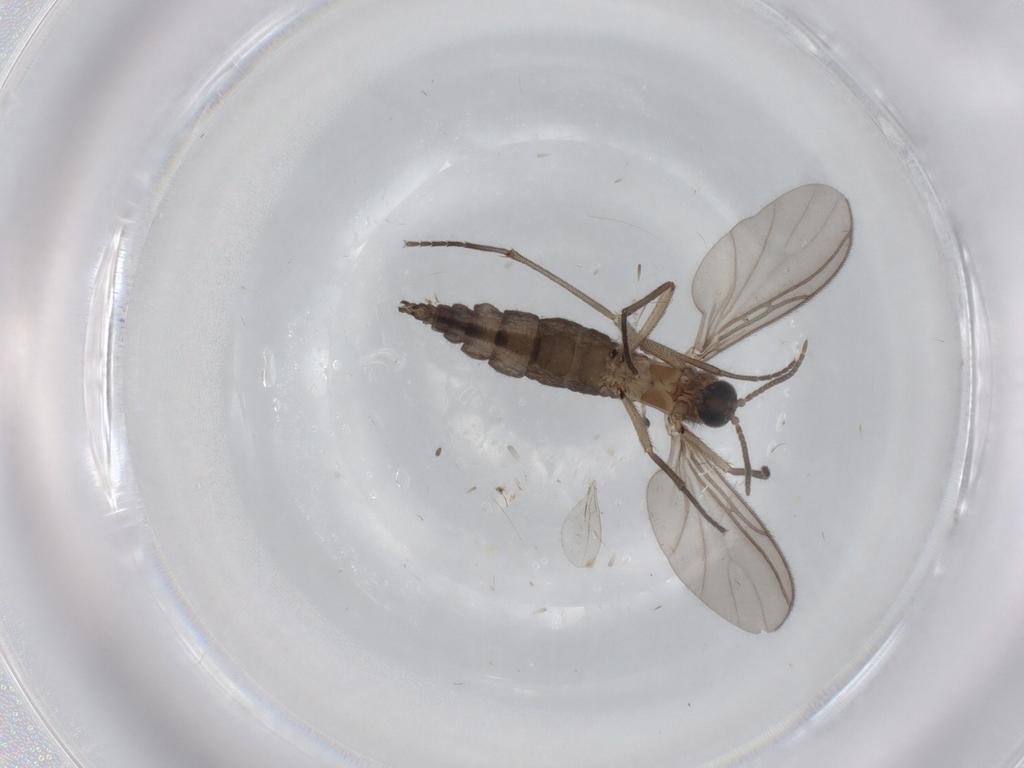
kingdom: Animalia
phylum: Arthropoda
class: Insecta
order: Diptera
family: Sciaridae
